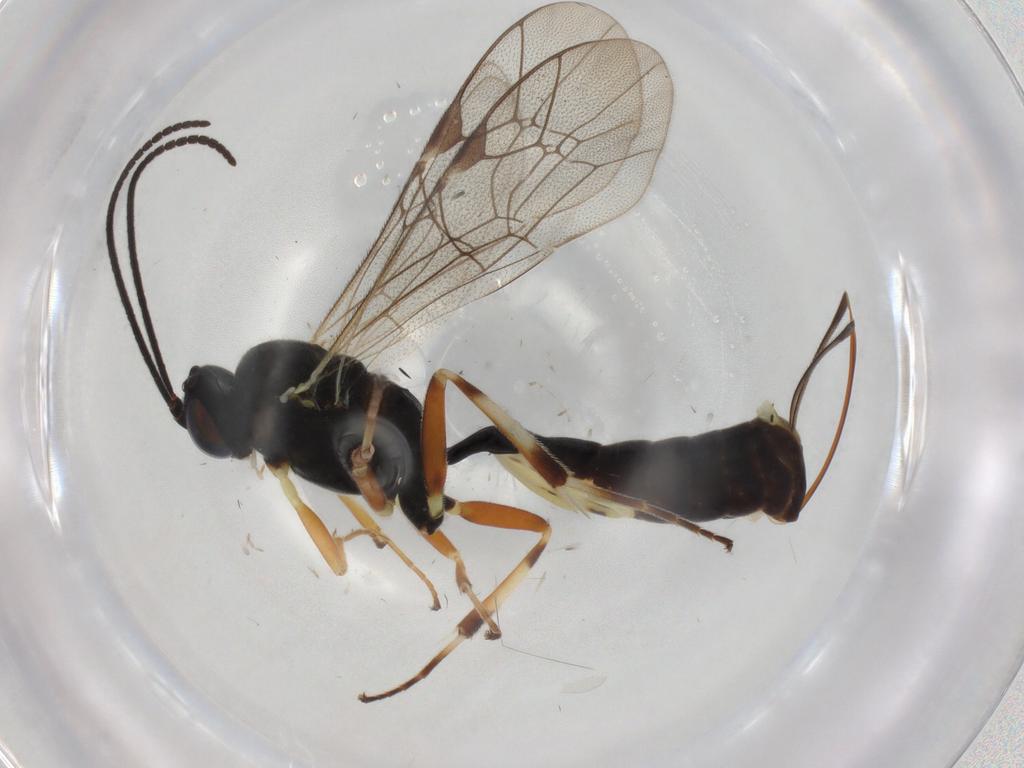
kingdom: Animalia
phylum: Arthropoda
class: Insecta
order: Hymenoptera
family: Ichneumonidae
